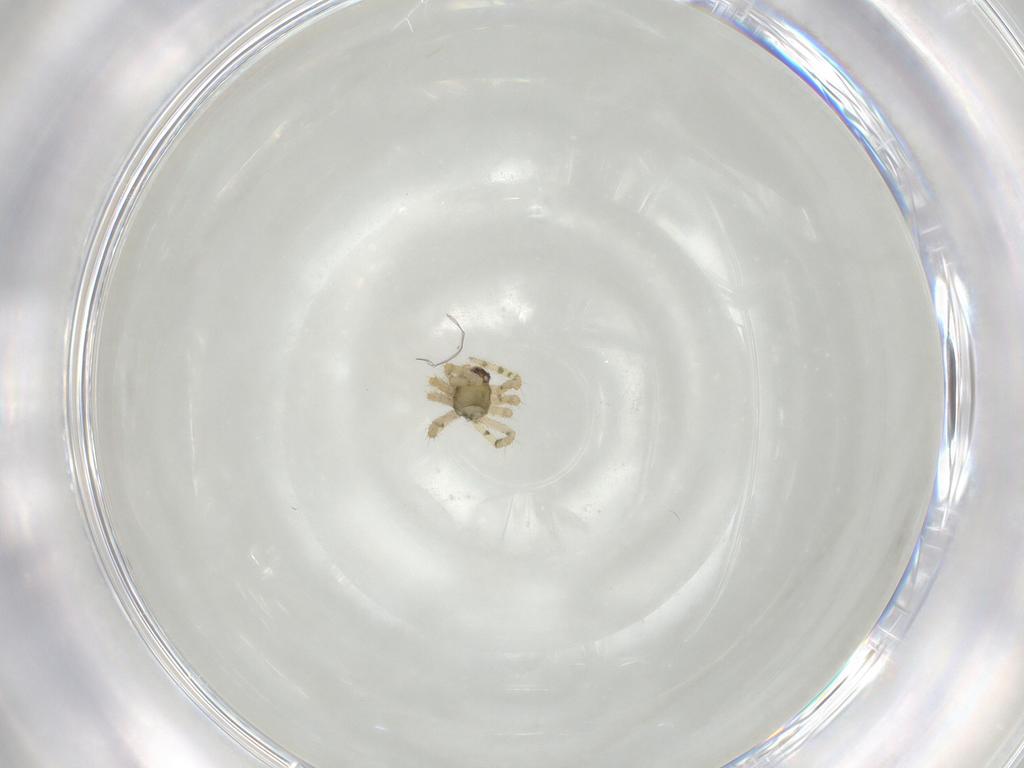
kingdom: Animalia
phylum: Arthropoda
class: Arachnida
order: Araneae
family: Theridiidae
